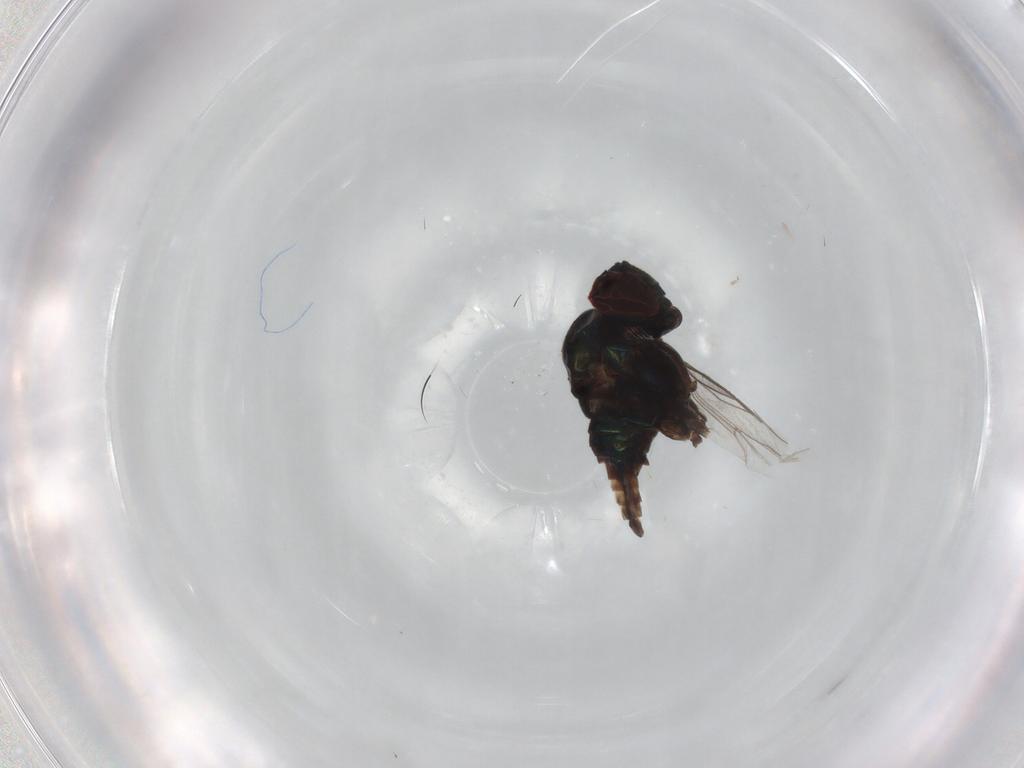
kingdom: Animalia
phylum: Arthropoda
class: Insecta
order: Diptera
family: Dolichopodidae
